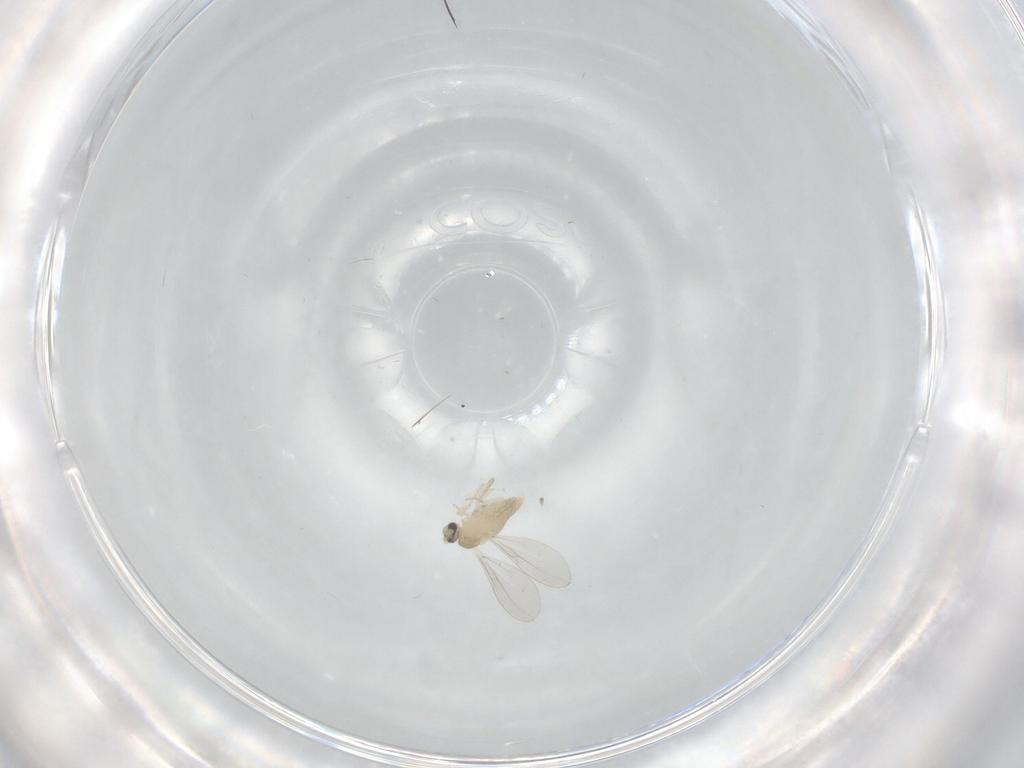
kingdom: Animalia
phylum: Arthropoda
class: Insecta
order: Diptera
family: Cecidomyiidae
